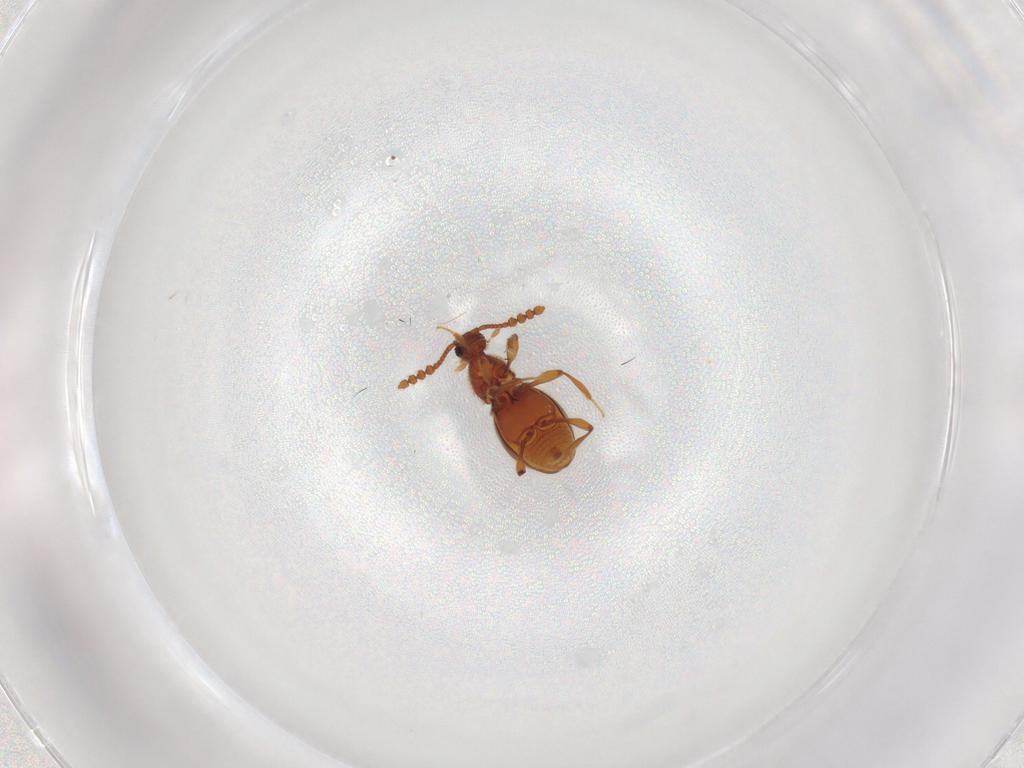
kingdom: Animalia
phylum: Arthropoda
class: Insecta
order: Coleoptera
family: Staphylinidae
